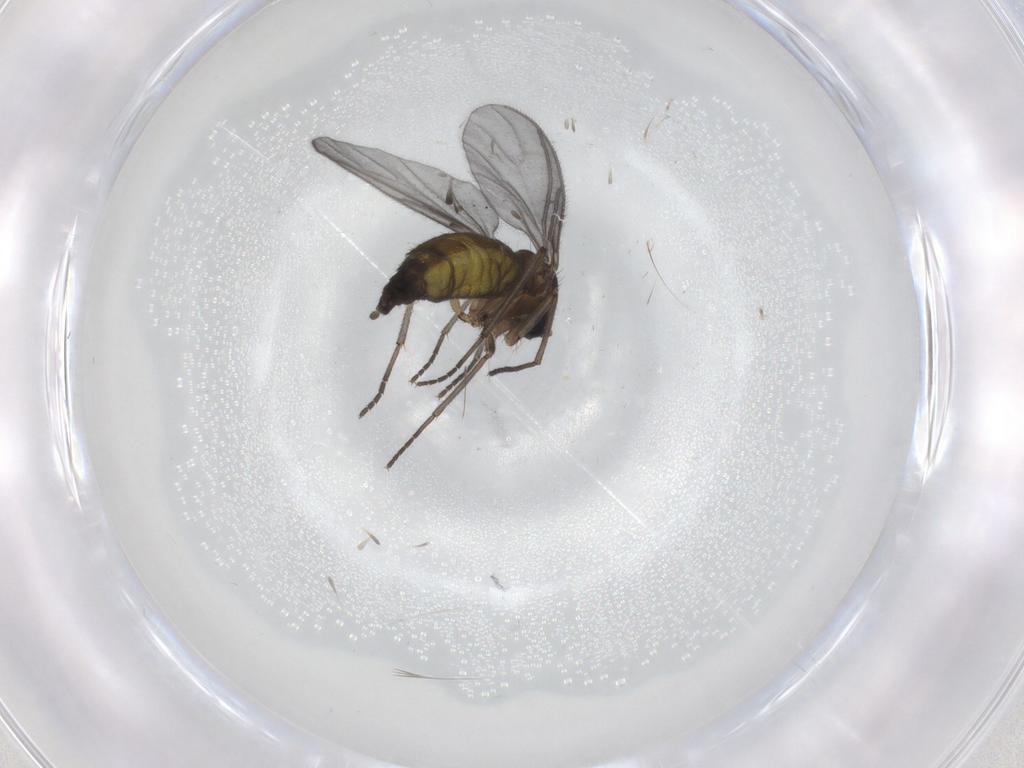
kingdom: Animalia
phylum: Arthropoda
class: Insecta
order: Diptera
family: Sciaridae
